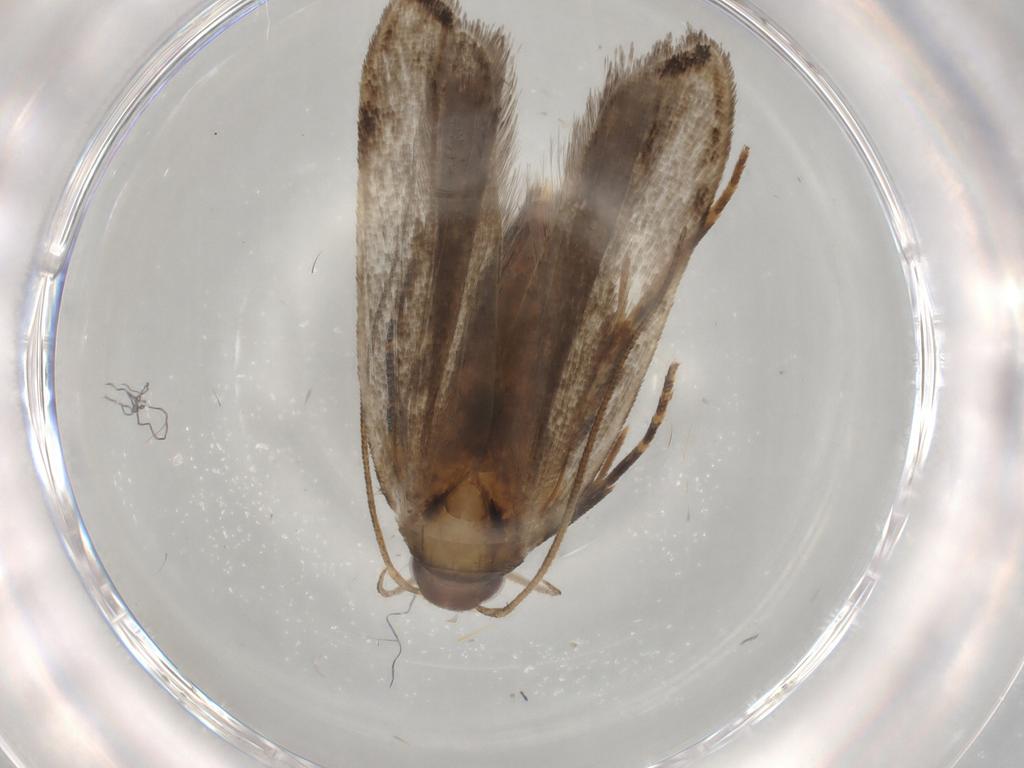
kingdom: Animalia
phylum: Arthropoda
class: Insecta
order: Lepidoptera
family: Gelechiidae
